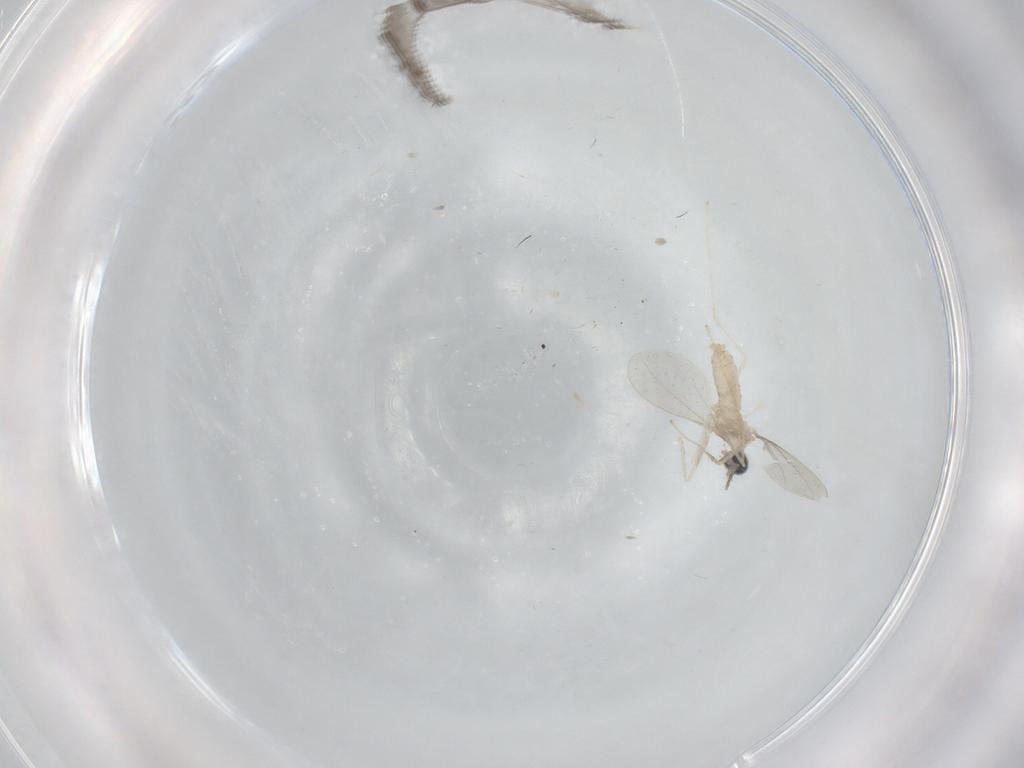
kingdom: Animalia
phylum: Arthropoda
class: Insecta
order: Diptera
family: Cecidomyiidae
